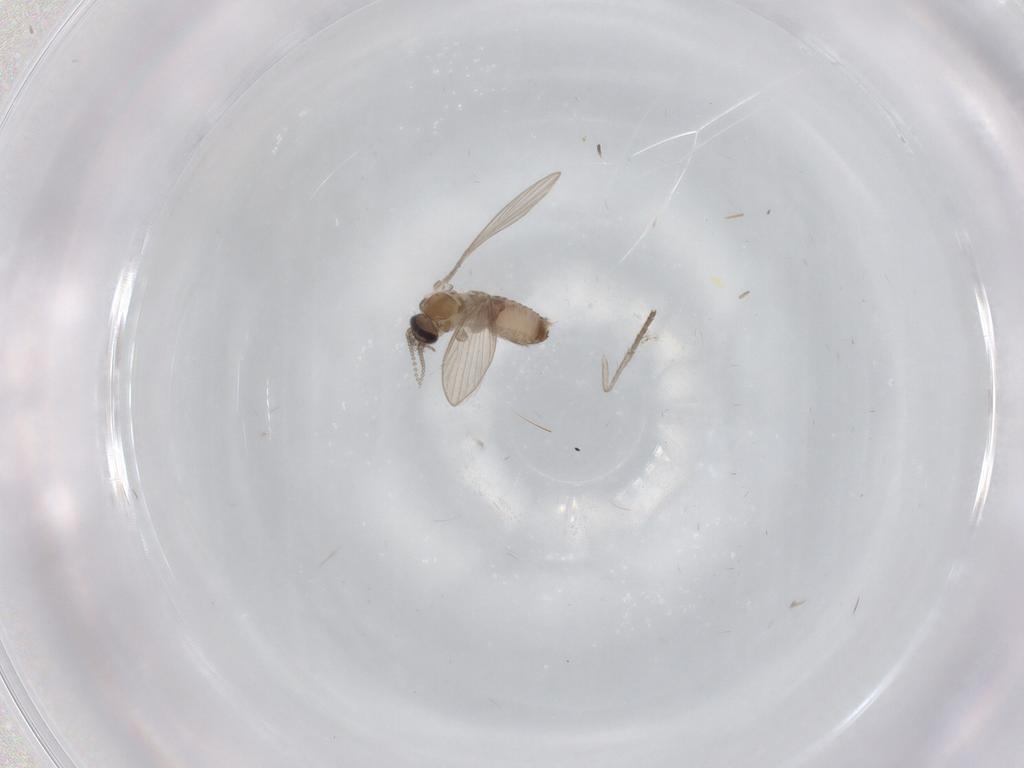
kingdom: Animalia
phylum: Arthropoda
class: Insecta
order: Diptera
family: Psychodidae
